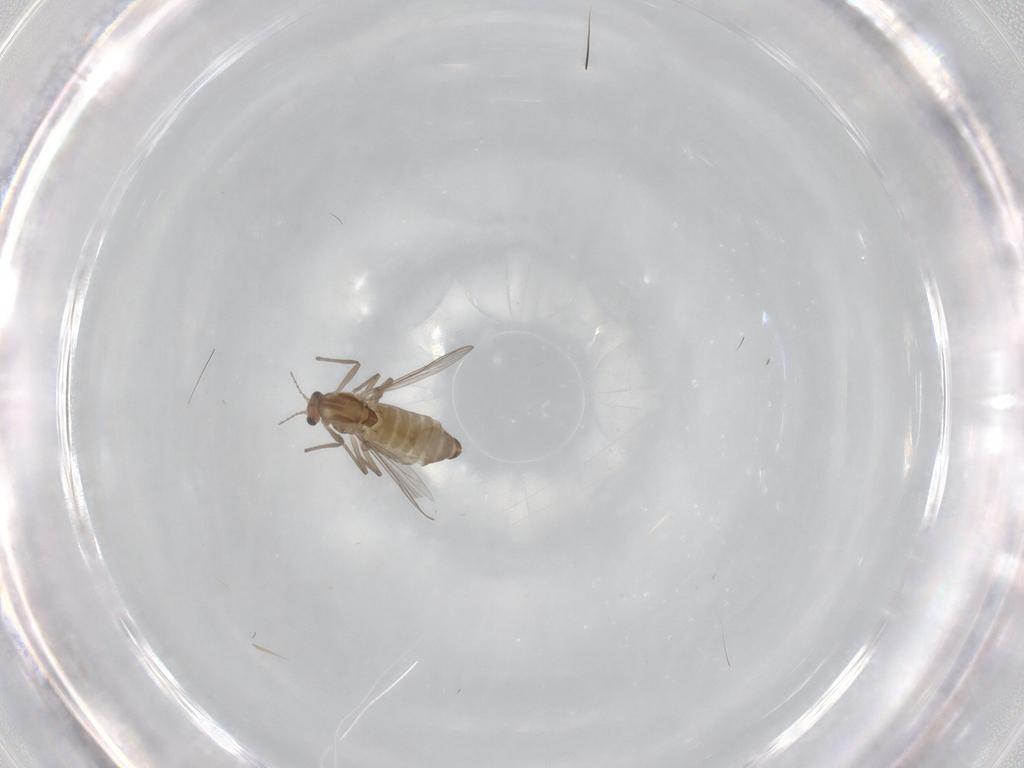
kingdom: Animalia
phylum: Arthropoda
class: Insecta
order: Diptera
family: Chironomidae
